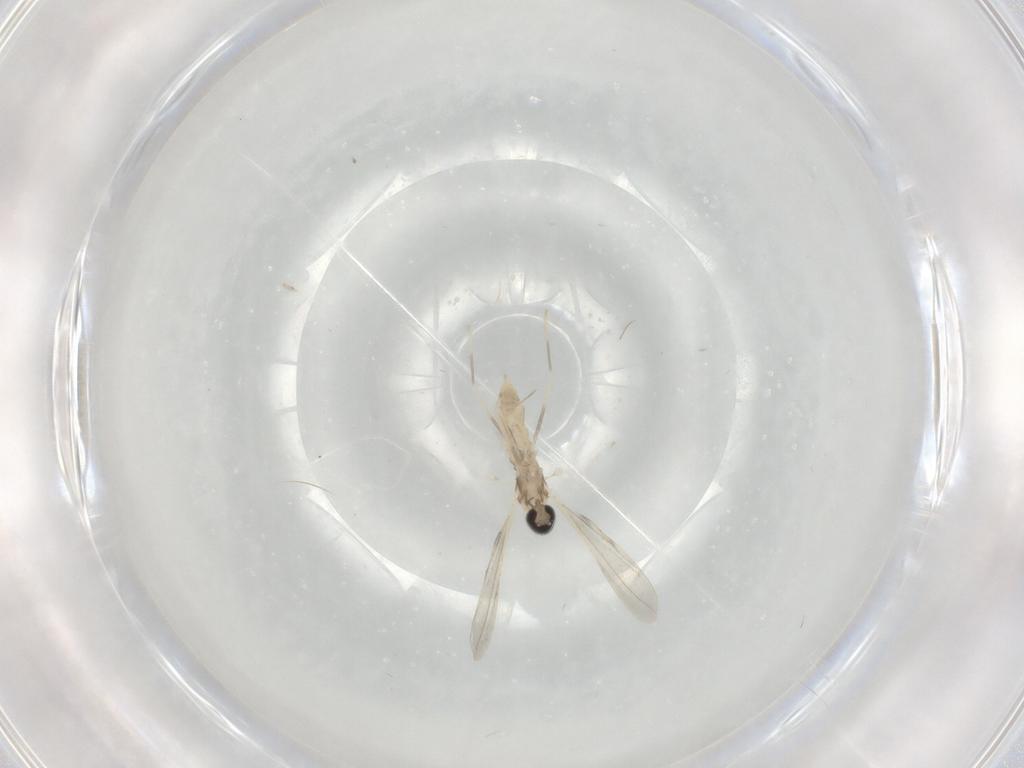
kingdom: Animalia
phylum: Arthropoda
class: Insecta
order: Diptera
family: Cecidomyiidae
